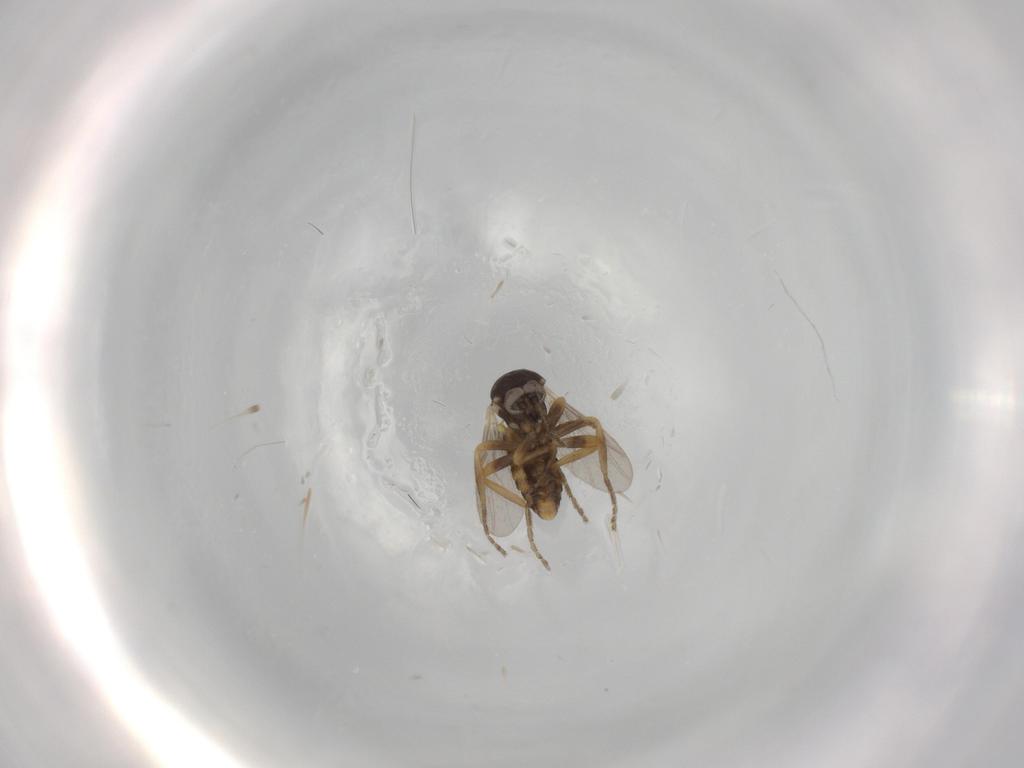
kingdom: Animalia
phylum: Arthropoda
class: Insecta
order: Diptera
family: Ceratopogonidae
